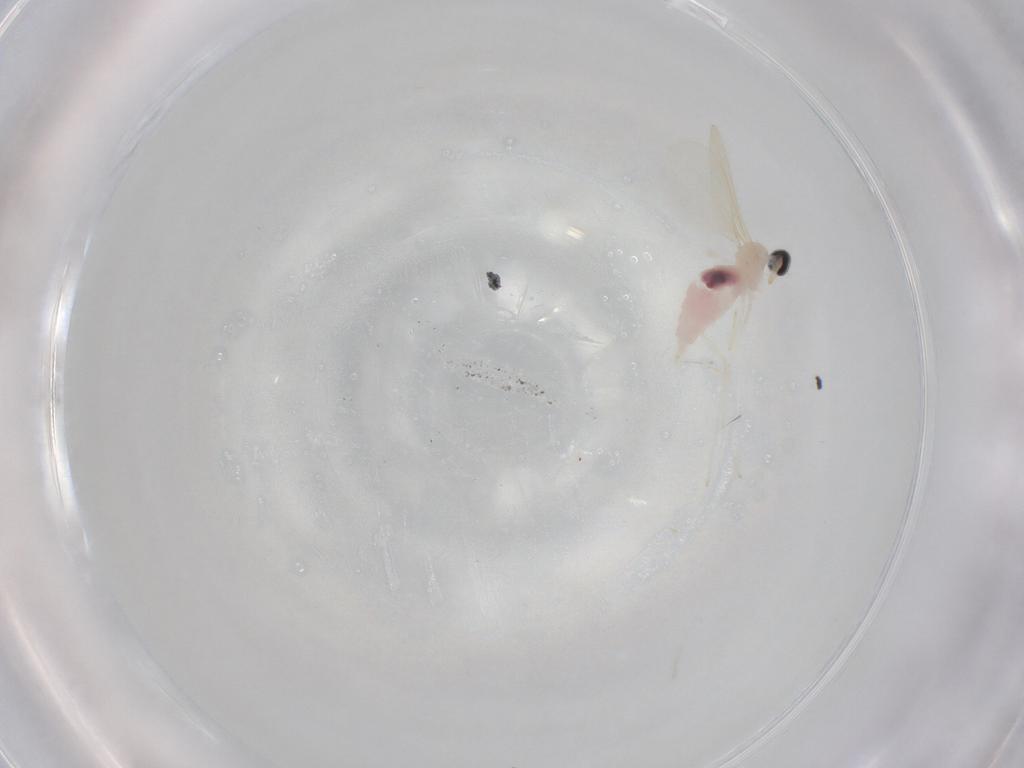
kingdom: Animalia
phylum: Arthropoda
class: Insecta
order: Diptera
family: Cecidomyiidae
